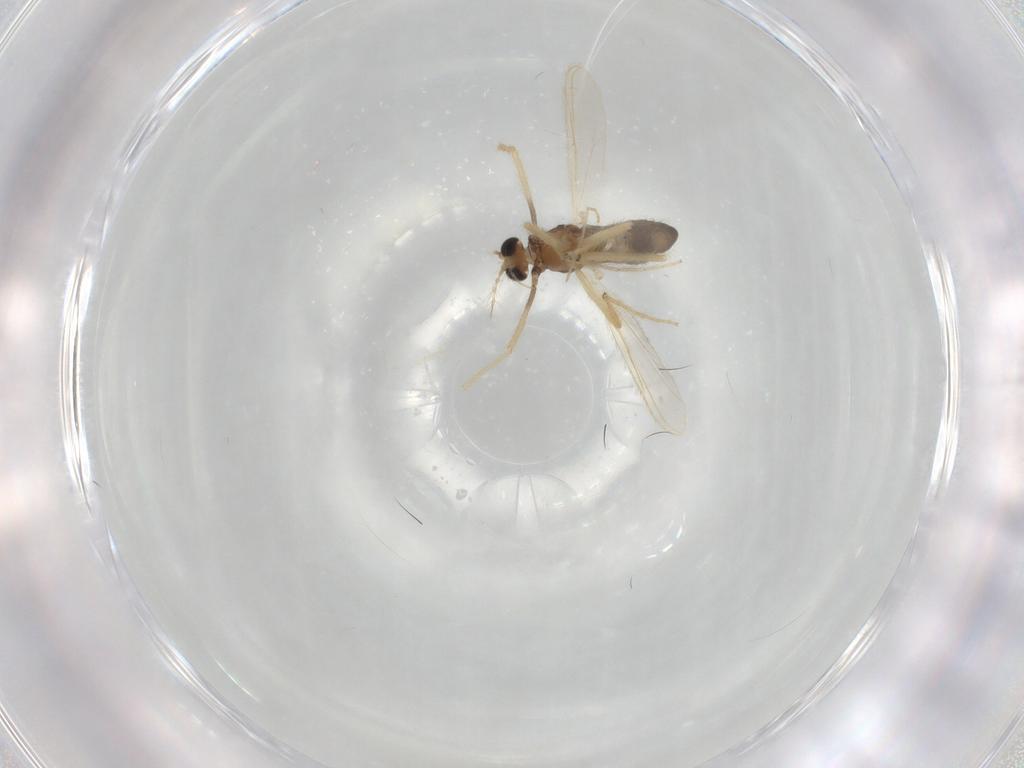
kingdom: Animalia
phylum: Arthropoda
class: Insecta
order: Diptera
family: Chironomidae
